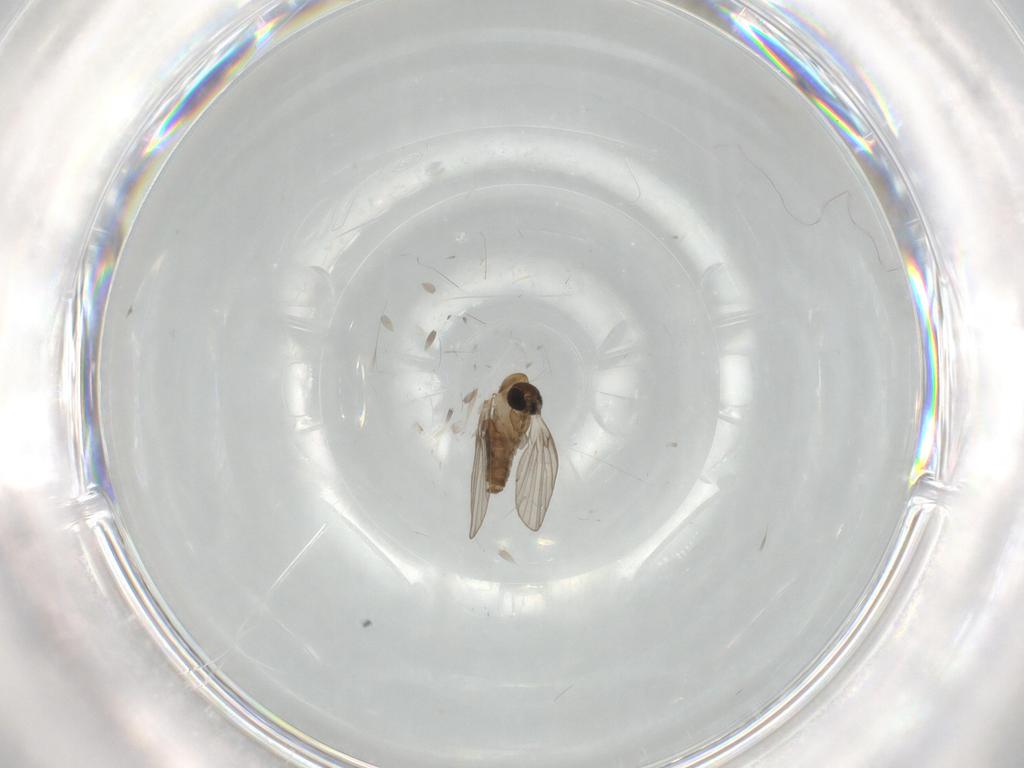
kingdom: Animalia
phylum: Arthropoda
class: Insecta
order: Diptera
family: Psychodidae
